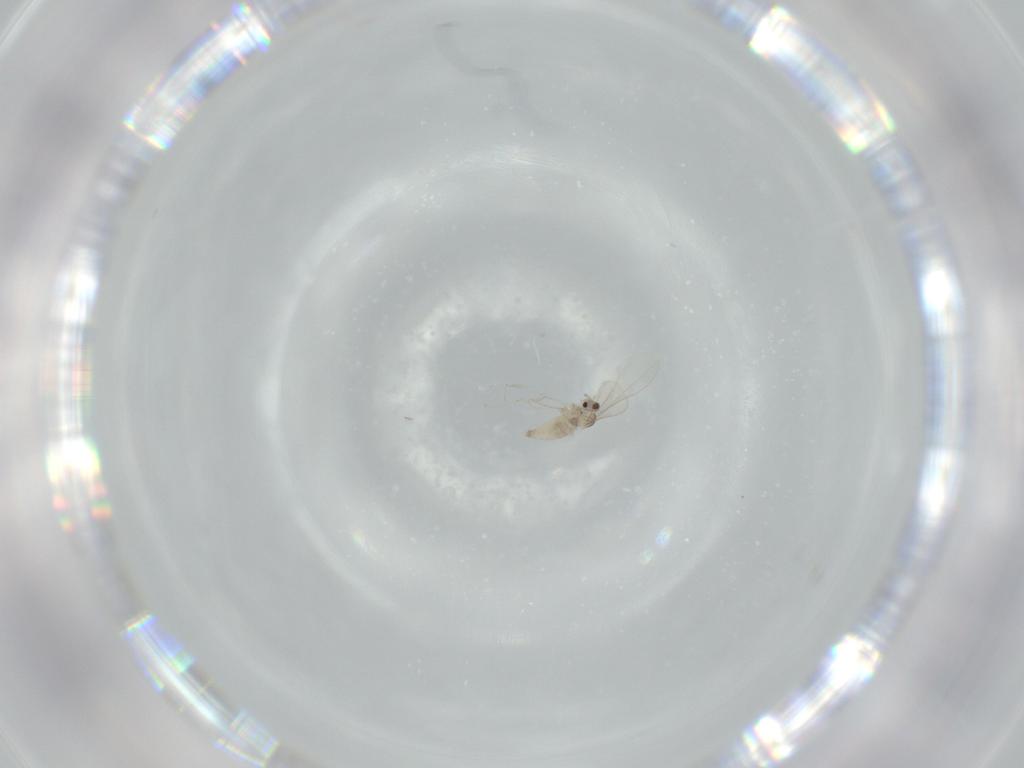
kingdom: Animalia
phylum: Arthropoda
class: Insecta
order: Diptera
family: Cecidomyiidae
